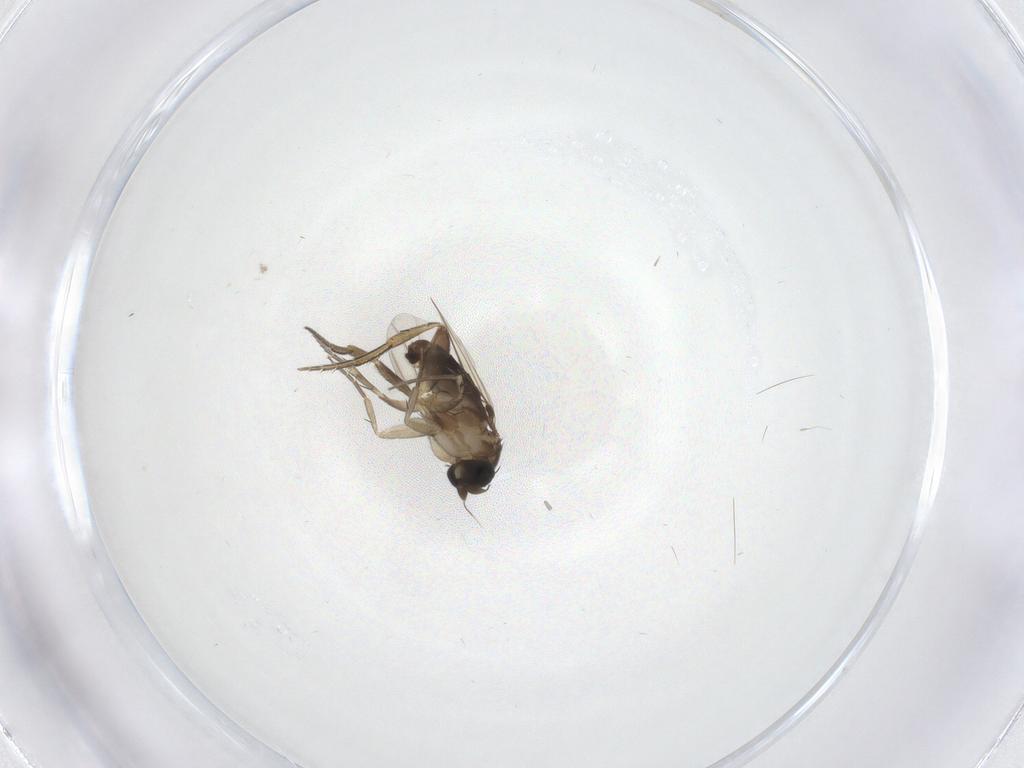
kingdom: Animalia
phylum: Arthropoda
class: Insecta
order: Diptera
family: Phoridae
